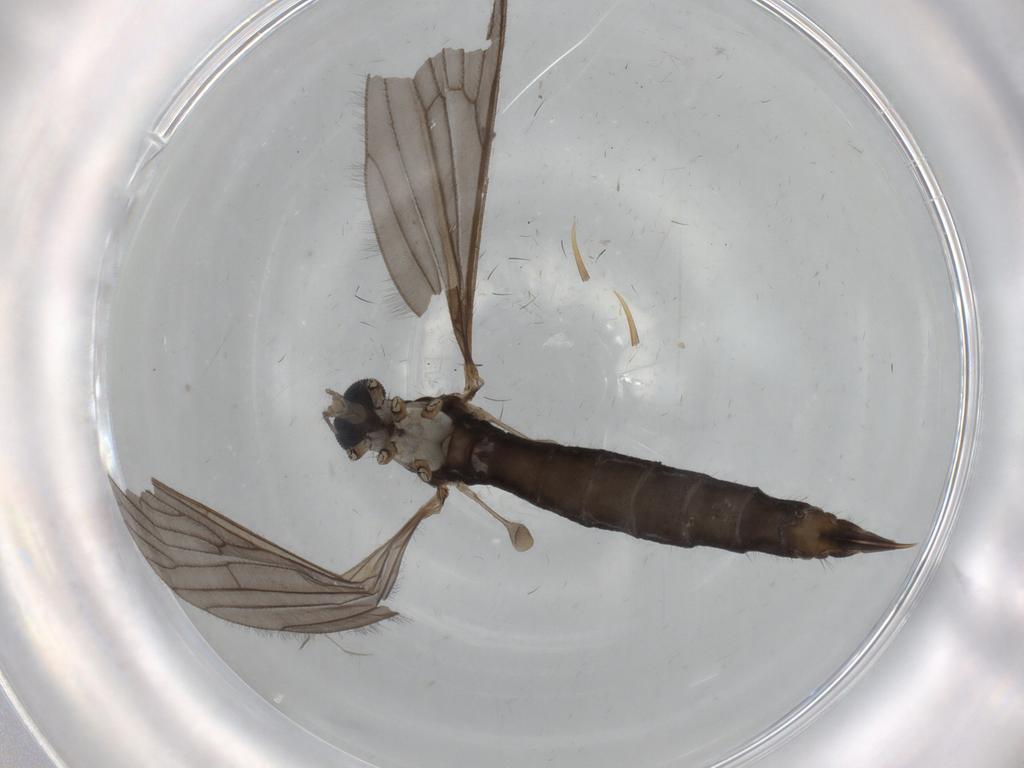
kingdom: Animalia
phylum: Arthropoda
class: Insecta
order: Diptera
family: Limoniidae
